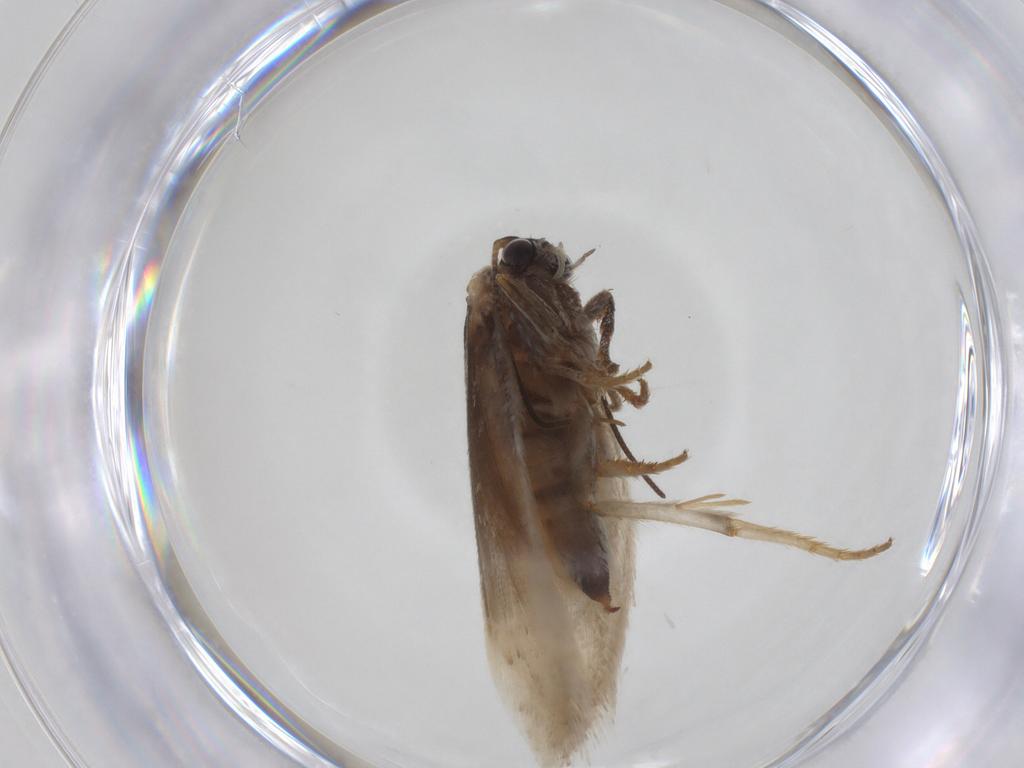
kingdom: Animalia
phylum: Arthropoda
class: Insecta
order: Lepidoptera
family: Tridentaformidae
